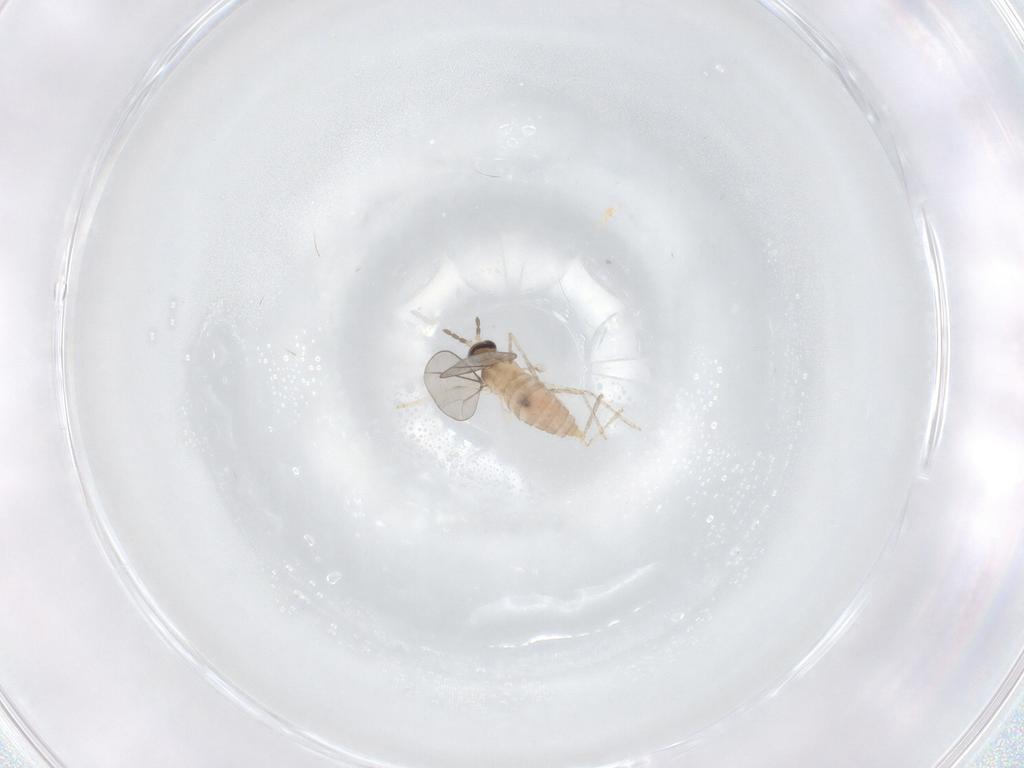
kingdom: Animalia
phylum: Arthropoda
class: Insecta
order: Diptera
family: Cecidomyiidae
